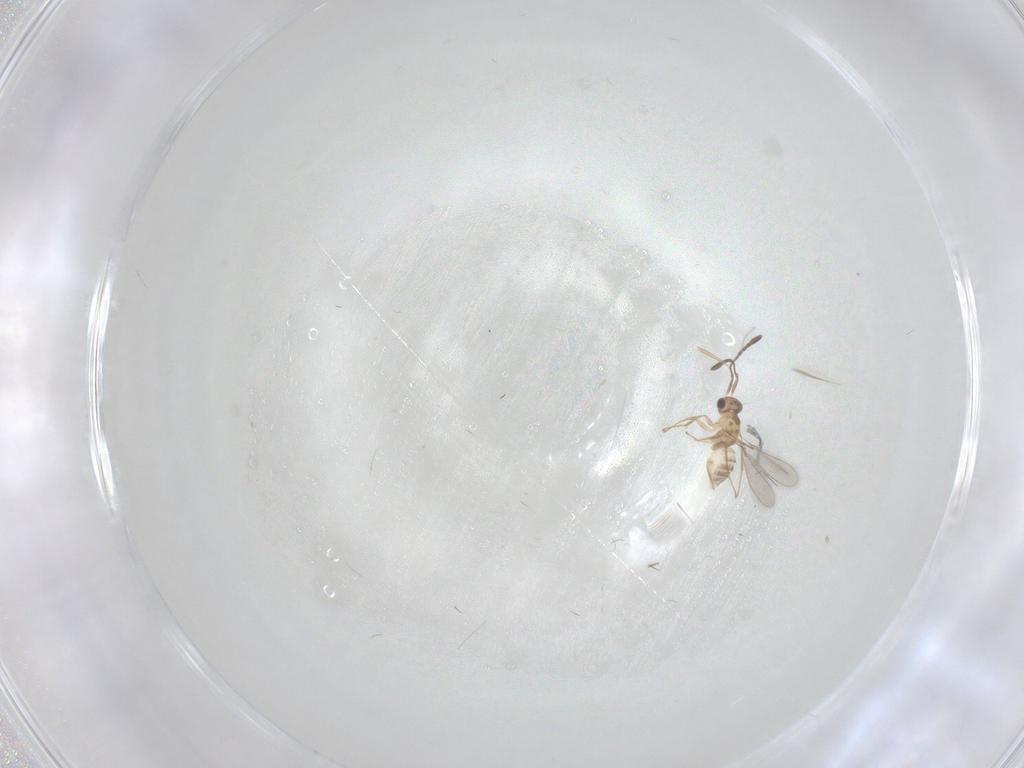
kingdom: Animalia
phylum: Arthropoda
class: Insecta
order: Hymenoptera
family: Mymaridae
